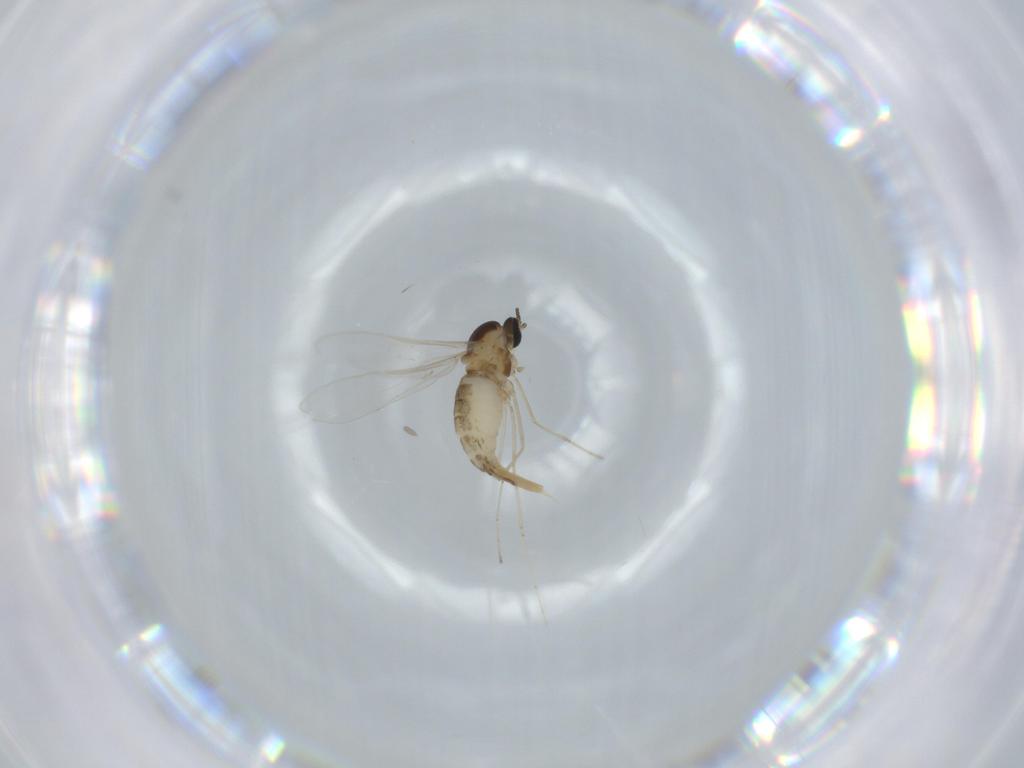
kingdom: Animalia
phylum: Arthropoda
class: Insecta
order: Diptera
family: Cecidomyiidae
